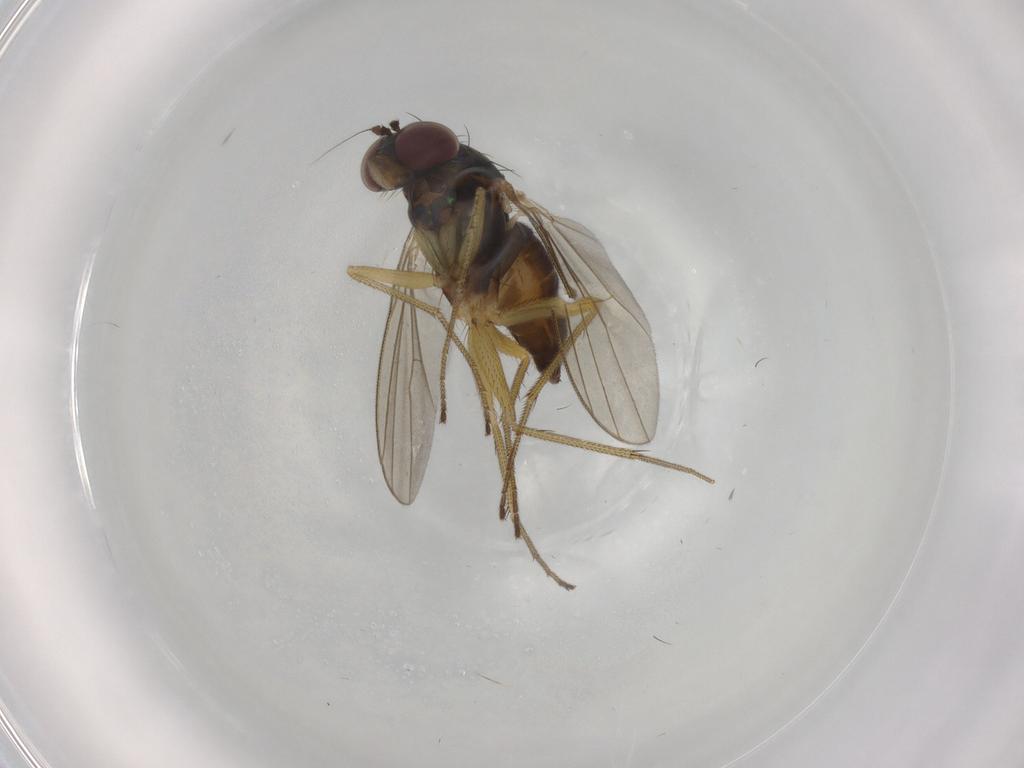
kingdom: Animalia
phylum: Arthropoda
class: Insecta
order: Diptera
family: Dolichopodidae
